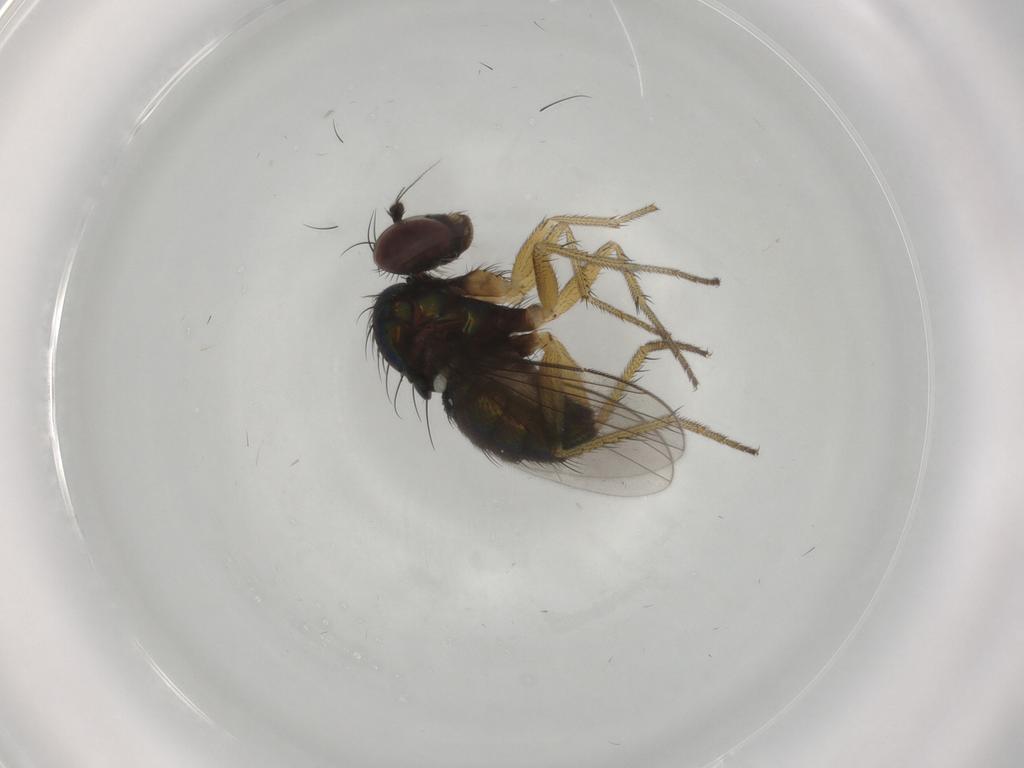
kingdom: Animalia
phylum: Arthropoda
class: Insecta
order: Diptera
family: Dolichopodidae
